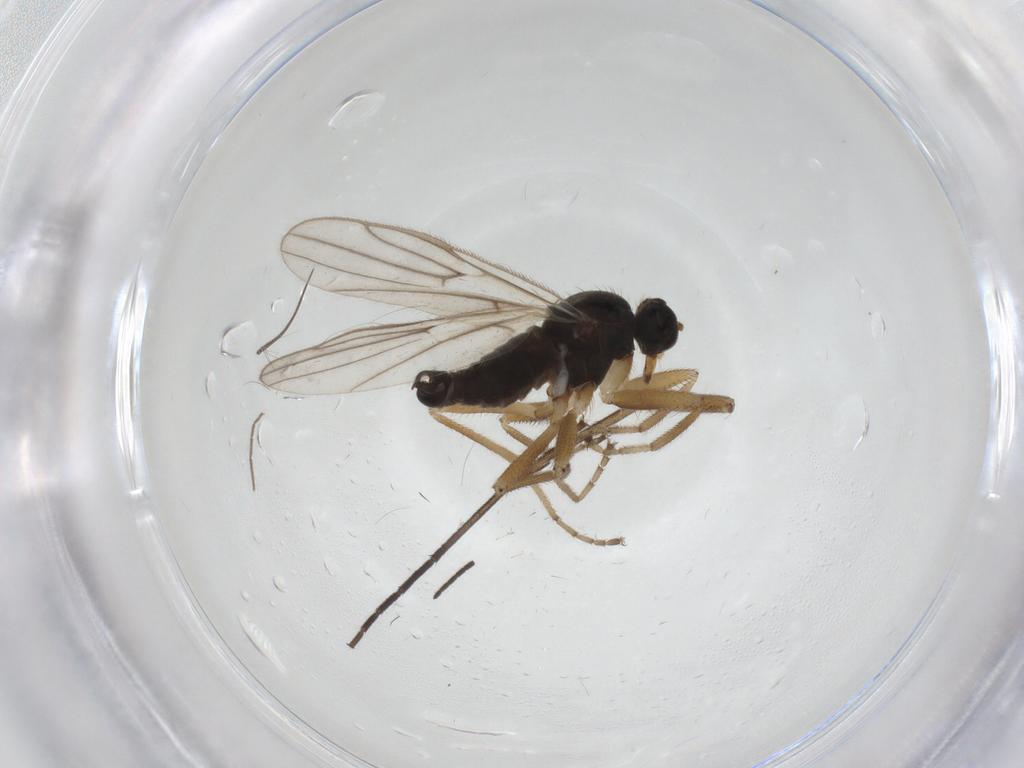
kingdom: Animalia
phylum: Arthropoda
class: Insecta
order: Diptera
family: Hybotidae
